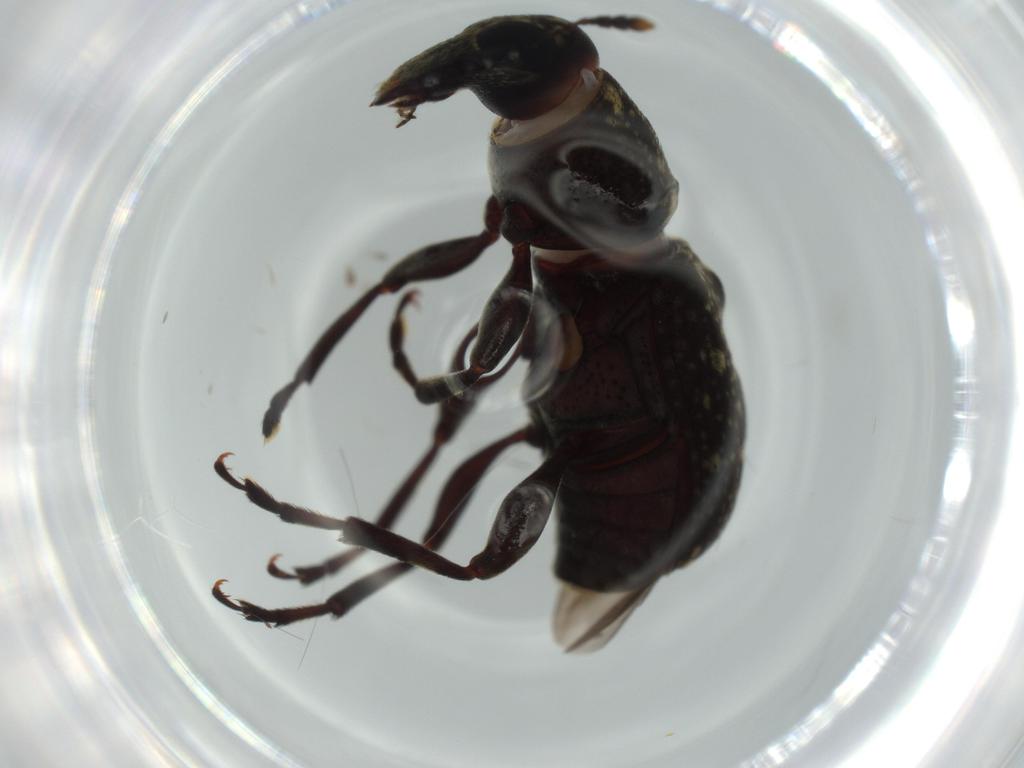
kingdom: Animalia
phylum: Arthropoda
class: Insecta
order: Coleoptera
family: Anthribidae
